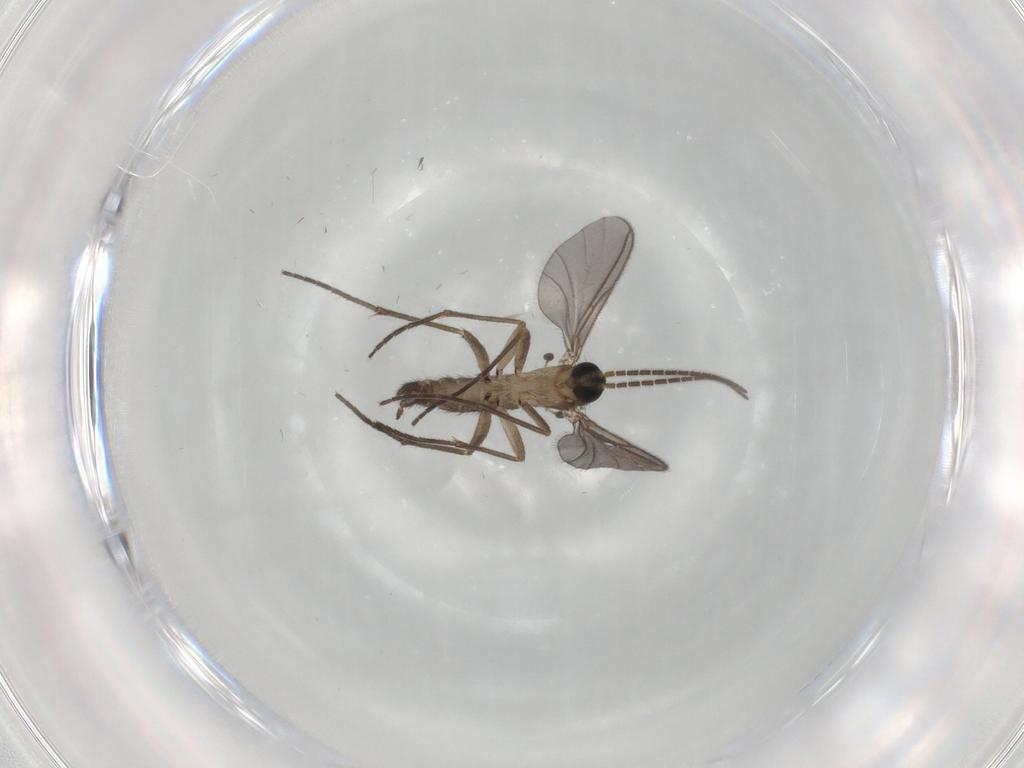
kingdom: Animalia
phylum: Arthropoda
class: Insecta
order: Diptera
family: Sciaridae
